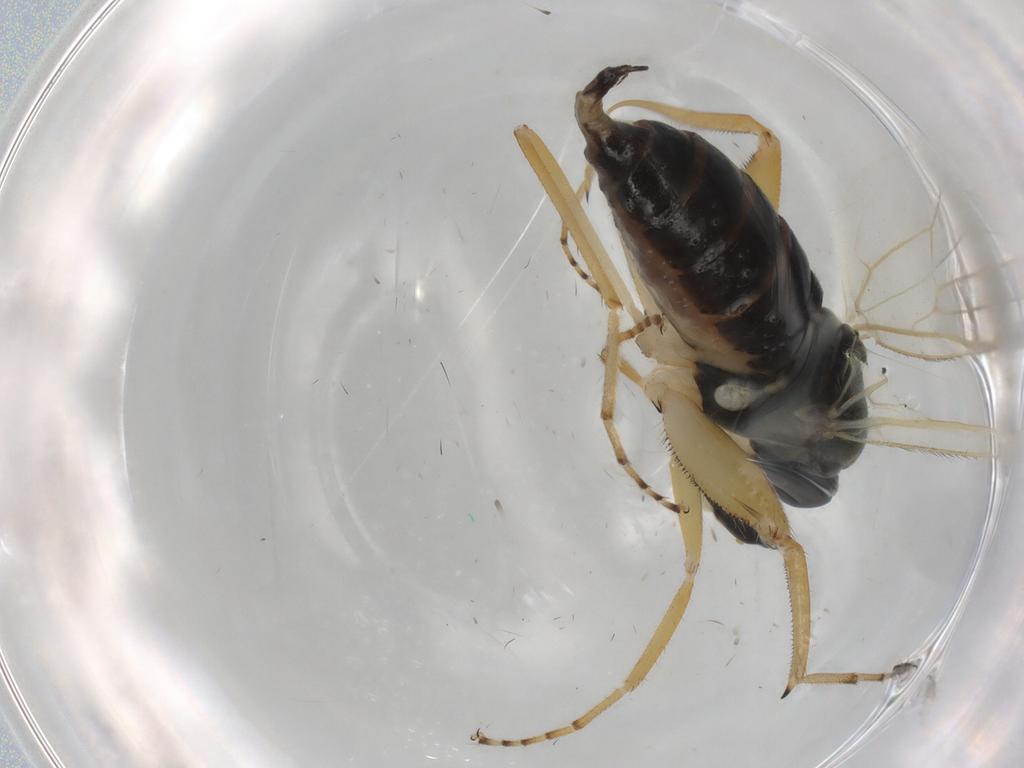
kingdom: Animalia
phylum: Arthropoda
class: Insecta
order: Diptera
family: Hybotidae
